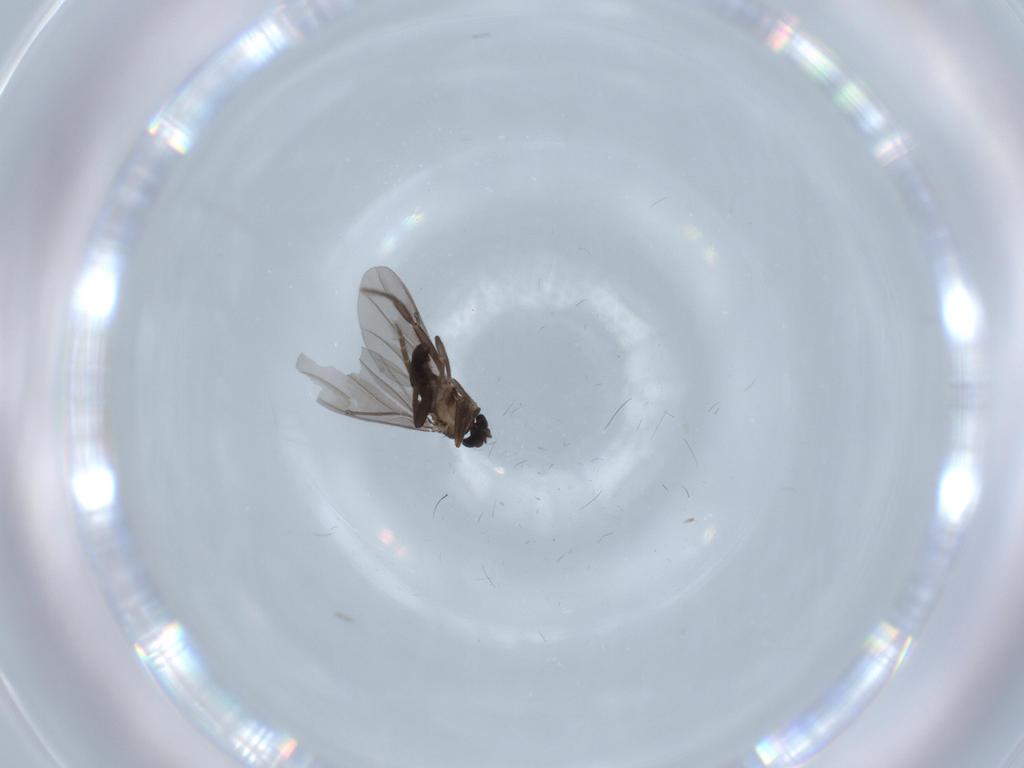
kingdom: Animalia
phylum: Arthropoda
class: Insecta
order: Diptera
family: Phoridae
